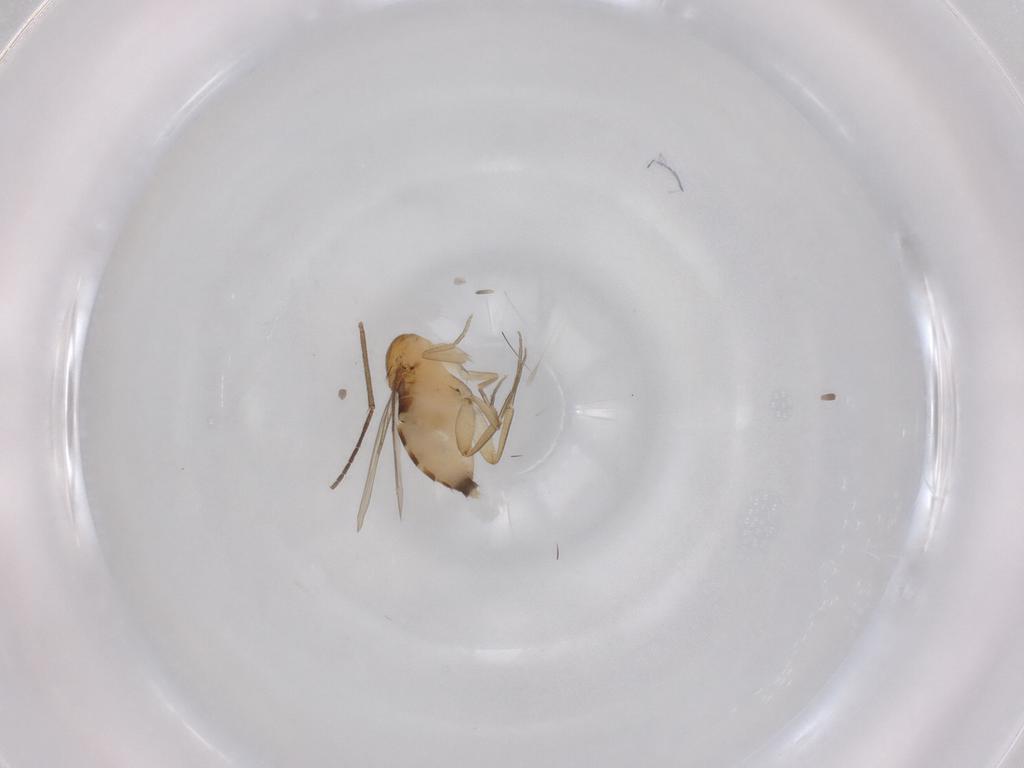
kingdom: Animalia
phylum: Arthropoda
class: Insecta
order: Diptera
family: Phoridae
